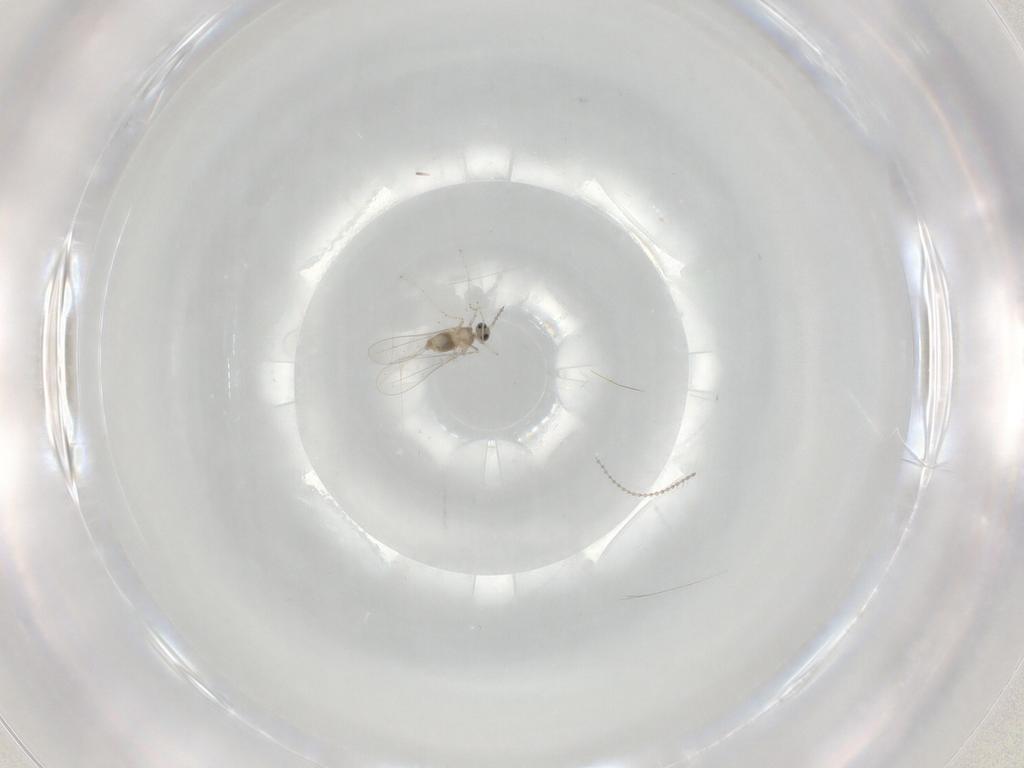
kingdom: Animalia
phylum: Arthropoda
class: Insecta
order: Diptera
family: Cecidomyiidae
